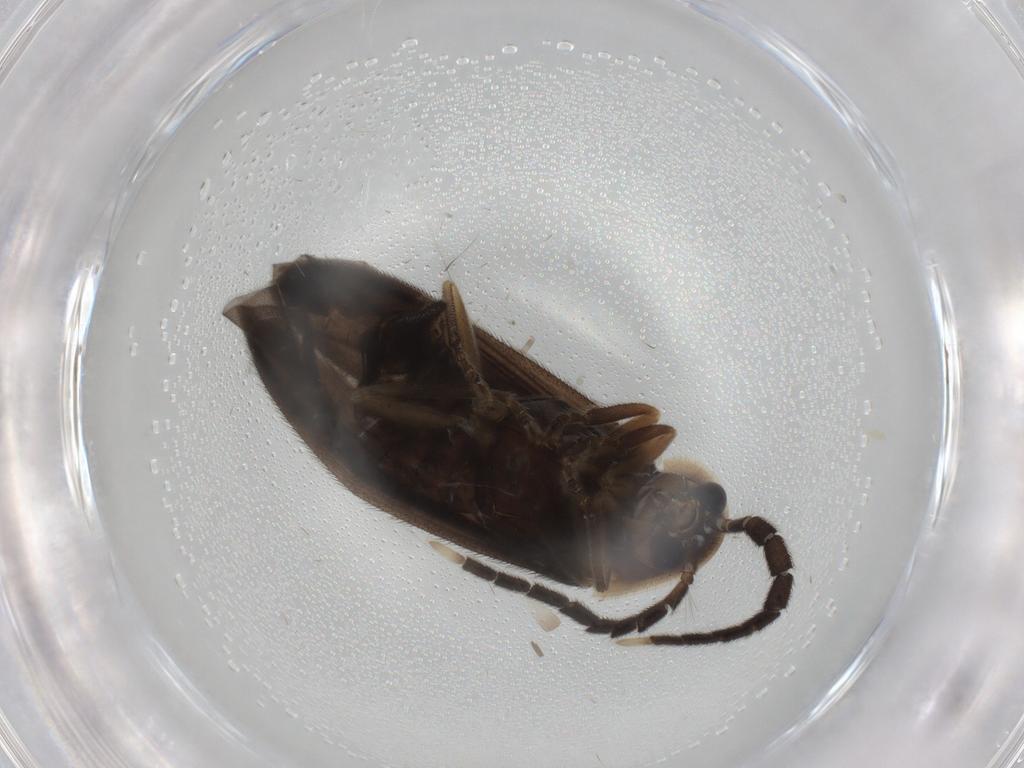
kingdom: Animalia
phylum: Arthropoda
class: Insecta
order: Coleoptera
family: Lampyridae
